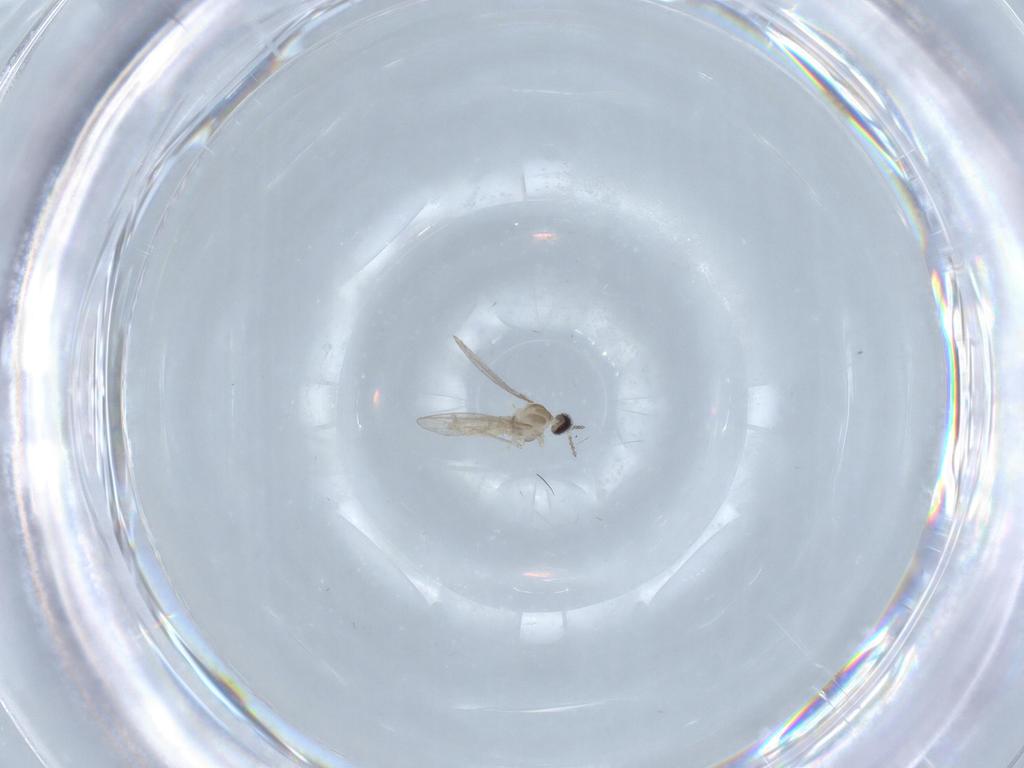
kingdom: Animalia
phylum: Arthropoda
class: Insecta
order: Diptera
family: Cecidomyiidae
